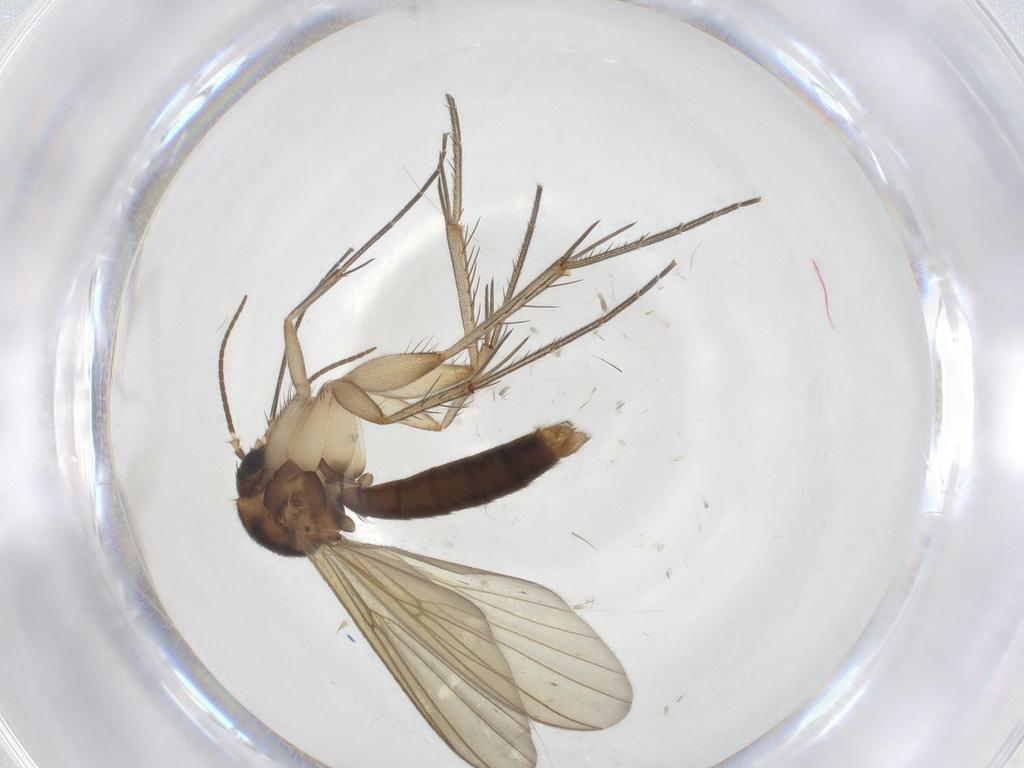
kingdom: Animalia
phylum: Arthropoda
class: Insecta
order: Diptera
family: Mycetophilidae
